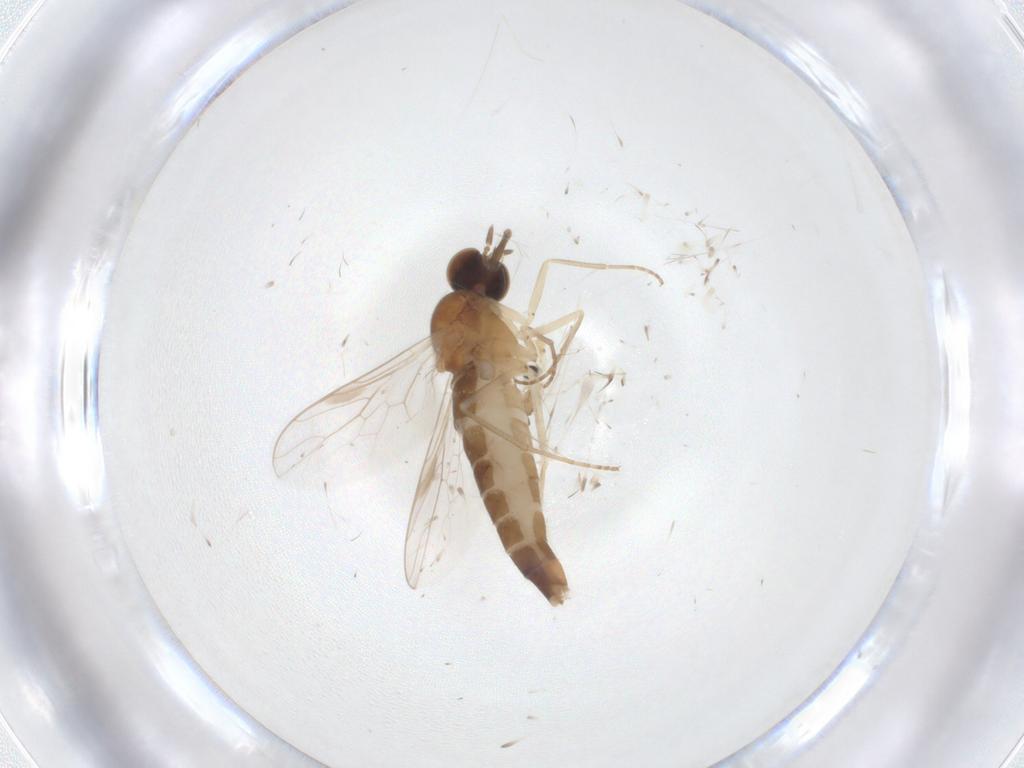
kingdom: Animalia
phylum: Arthropoda
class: Insecta
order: Diptera
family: Scenopinidae
